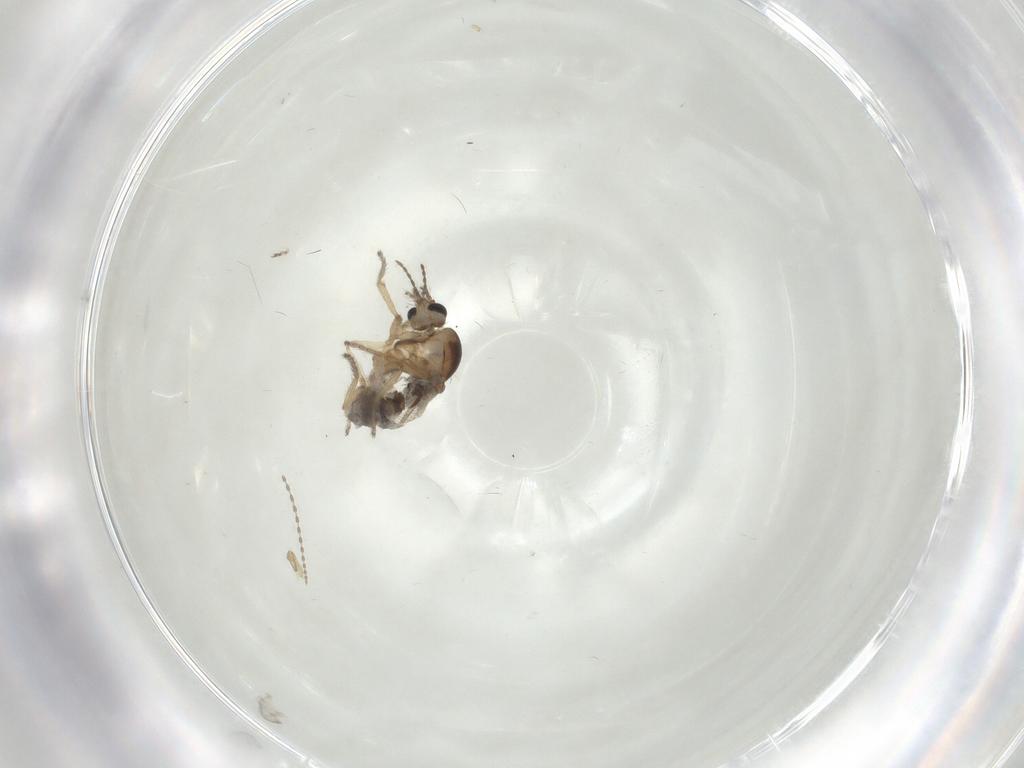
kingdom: Animalia
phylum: Arthropoda
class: Insecta
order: Diptera
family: Ceratopogonidae
